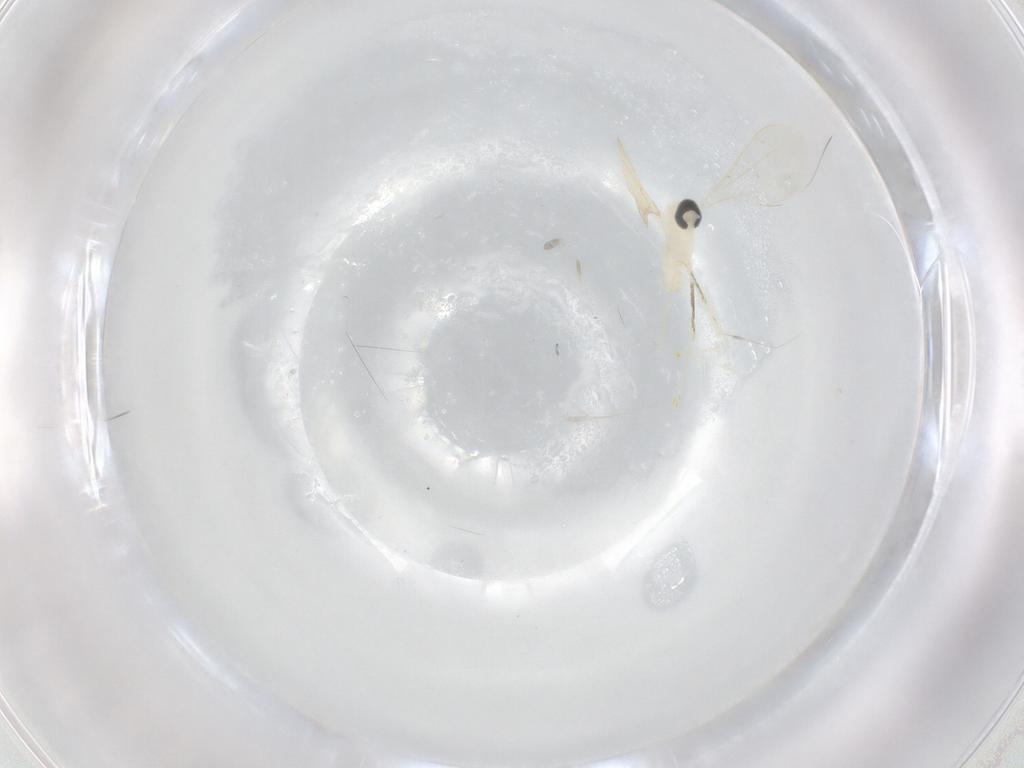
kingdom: Animalia
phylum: Arthropoda
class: Insecta
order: Diptera
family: Cecidomyiidae
